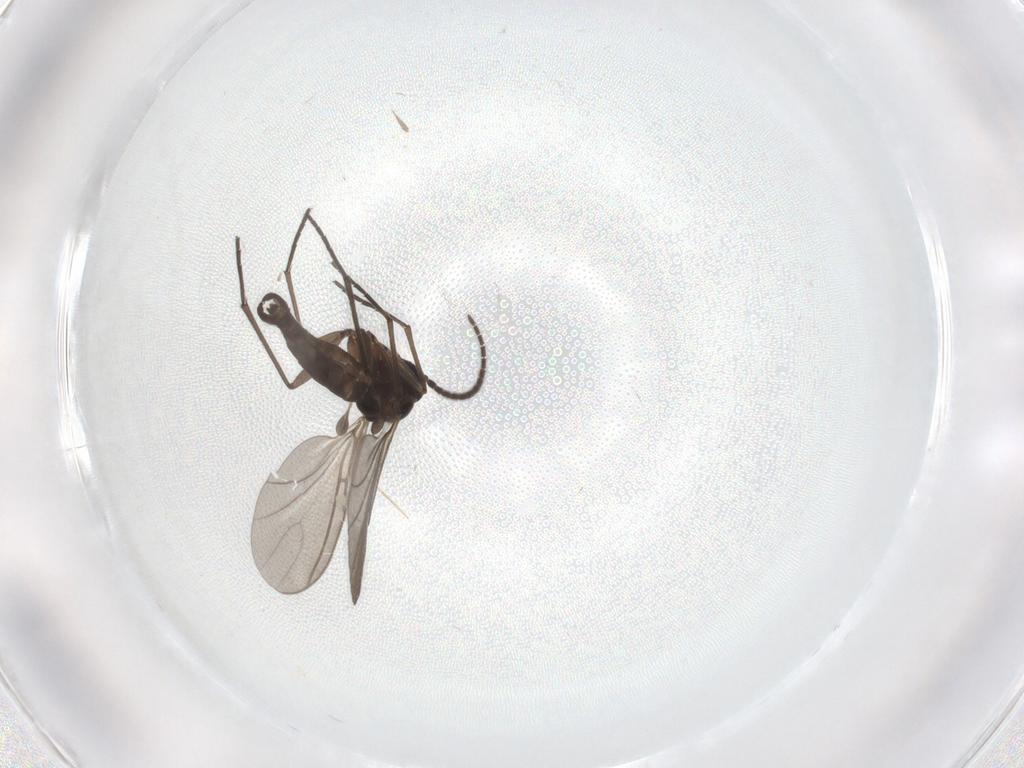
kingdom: Animalia
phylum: Arthropoda
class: Insecta
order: Diptera
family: Sciaridae
